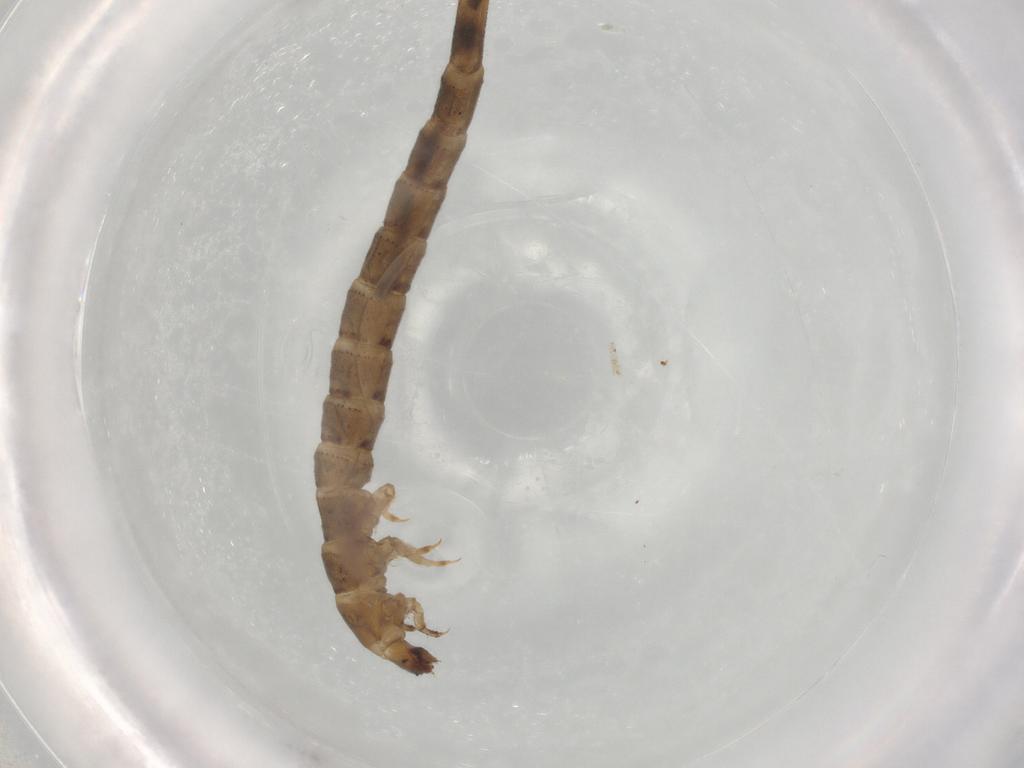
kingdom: Animalia
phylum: Arthropoda
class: Insecta
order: Coleoptera
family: Elmidae
